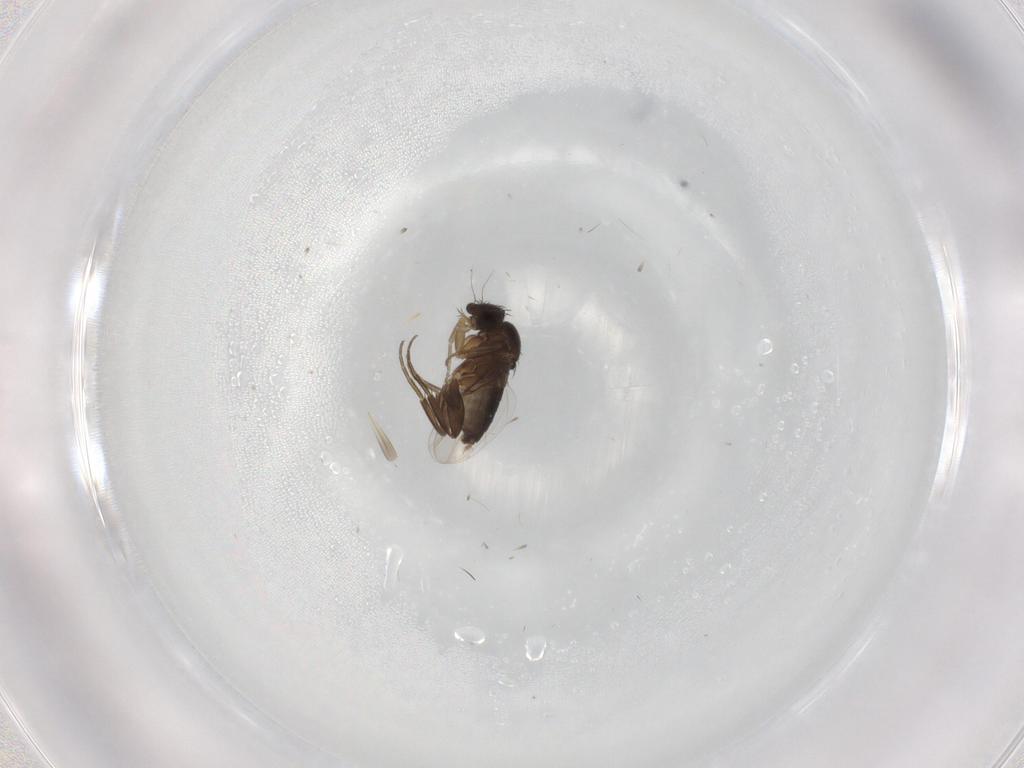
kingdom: Animalia
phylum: Arthropoda
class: Insecta
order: Diptera
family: Phoridae
